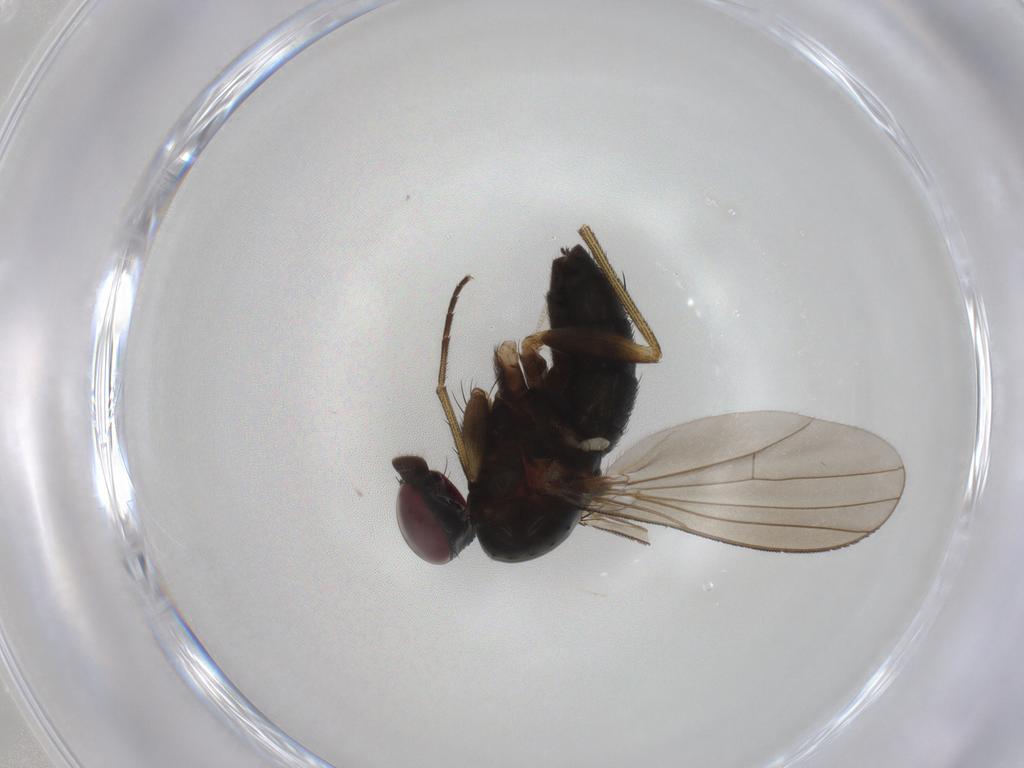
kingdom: Animalia
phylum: Arthropoda
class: Insecta
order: Diptera
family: Dolichopodidae
